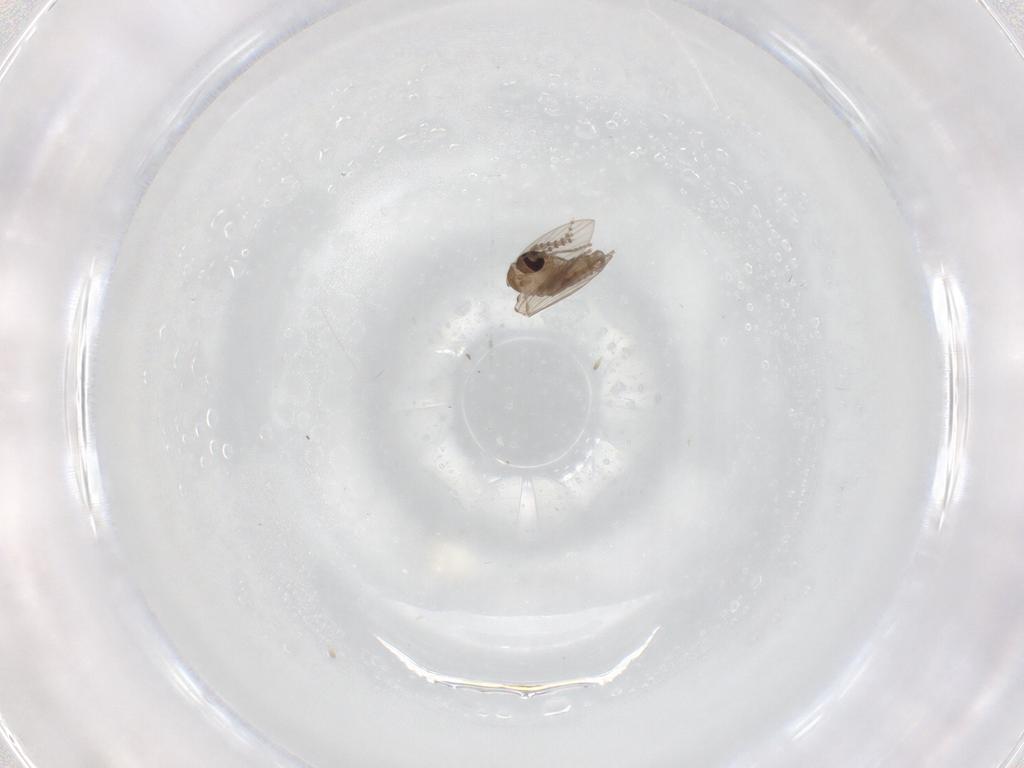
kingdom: Animalia
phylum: Arthropoda
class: Insecta
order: Diptera
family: Psychodidae
